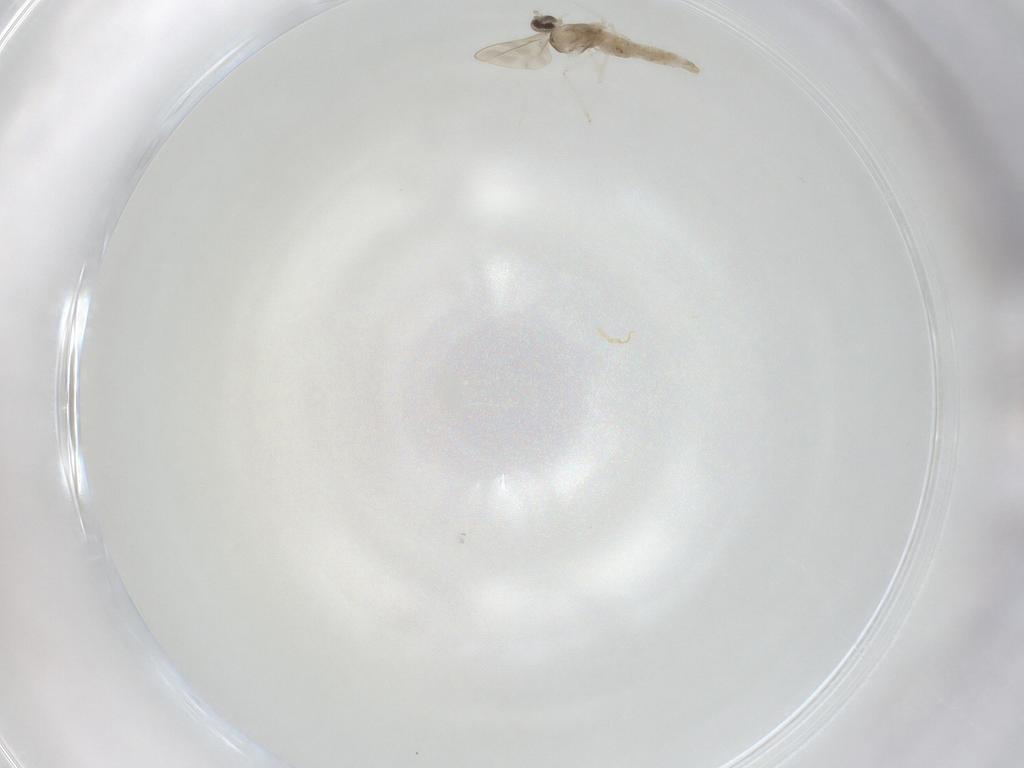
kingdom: Animalia
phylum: Arthropoda
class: Insecta
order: Diptera
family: Cecidomyiidae
